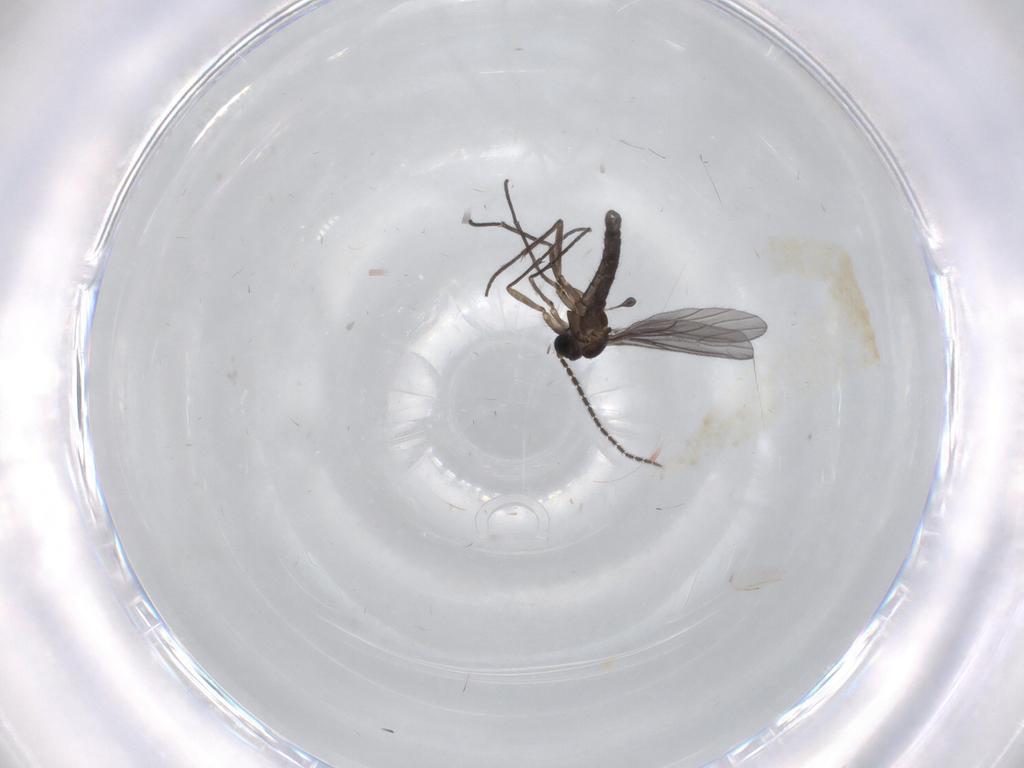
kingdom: Animalia
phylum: Arthropoda
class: Insecta
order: Diptera
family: Sciaridae
